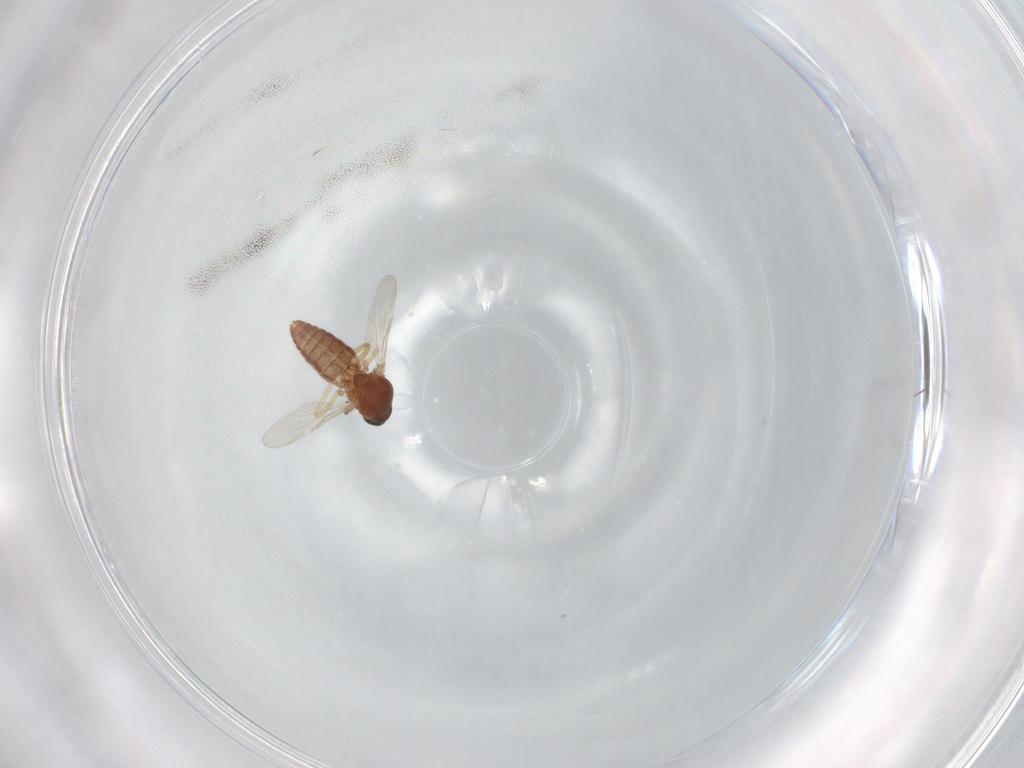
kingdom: Animalia
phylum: Arthropoda
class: Insecta
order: Diptera
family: Ceratopogonidae
